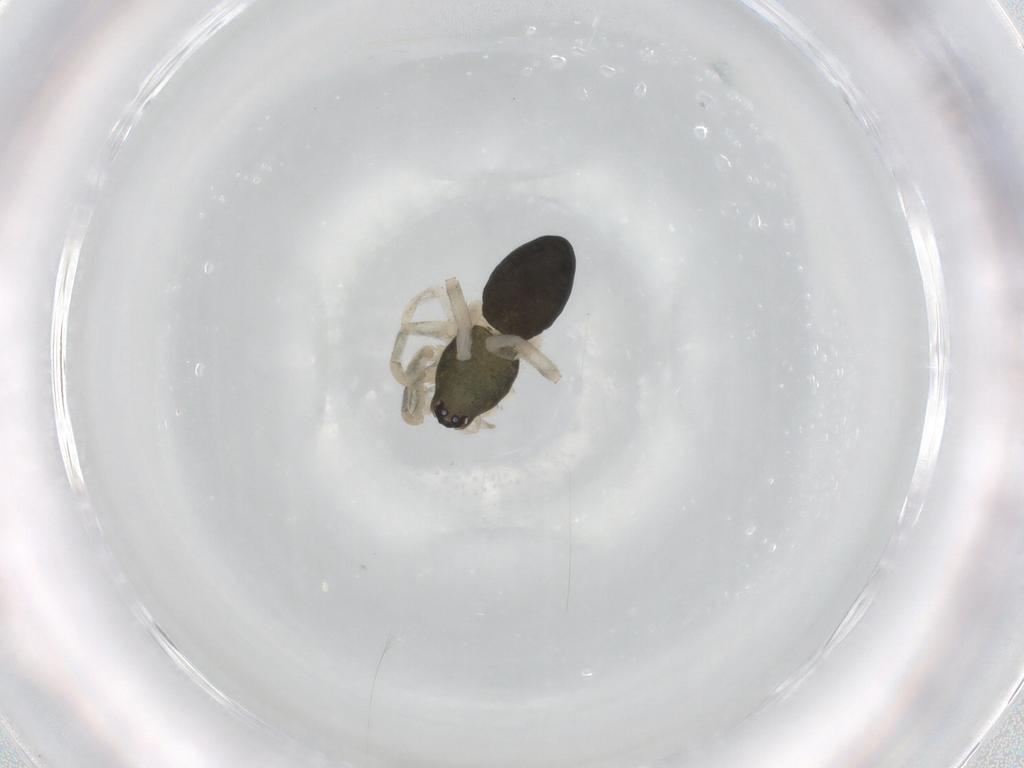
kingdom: Animalia
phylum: Arthropoda
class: Arachnida
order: Araneae
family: Trachelidae
